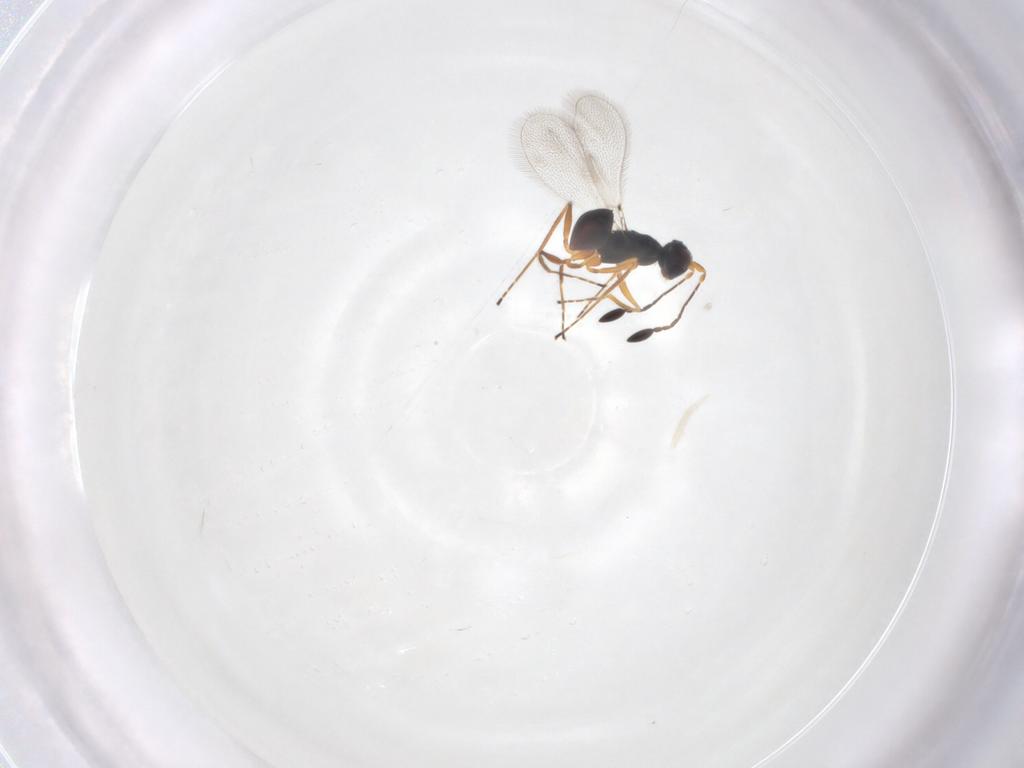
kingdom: Animalia
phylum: Arthropoda
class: Insecta
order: Hymenoptera
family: Mymaridae
